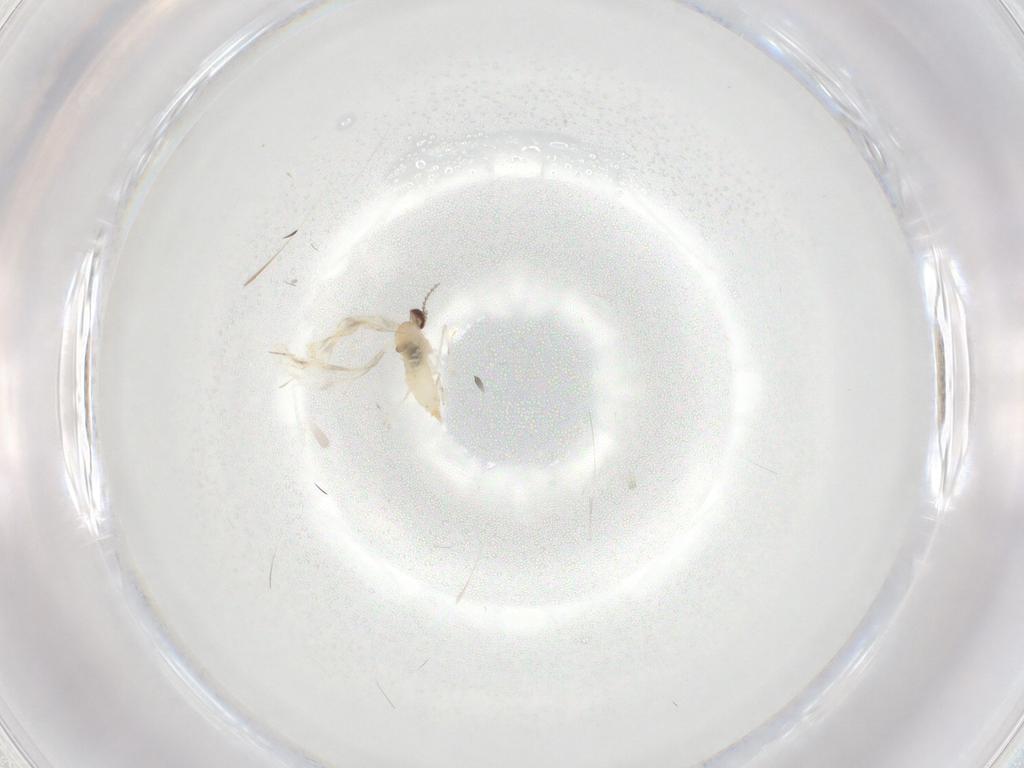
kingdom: Animalia
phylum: Arthropoda
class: Insecta
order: Diptera
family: Cecidomyiidae
